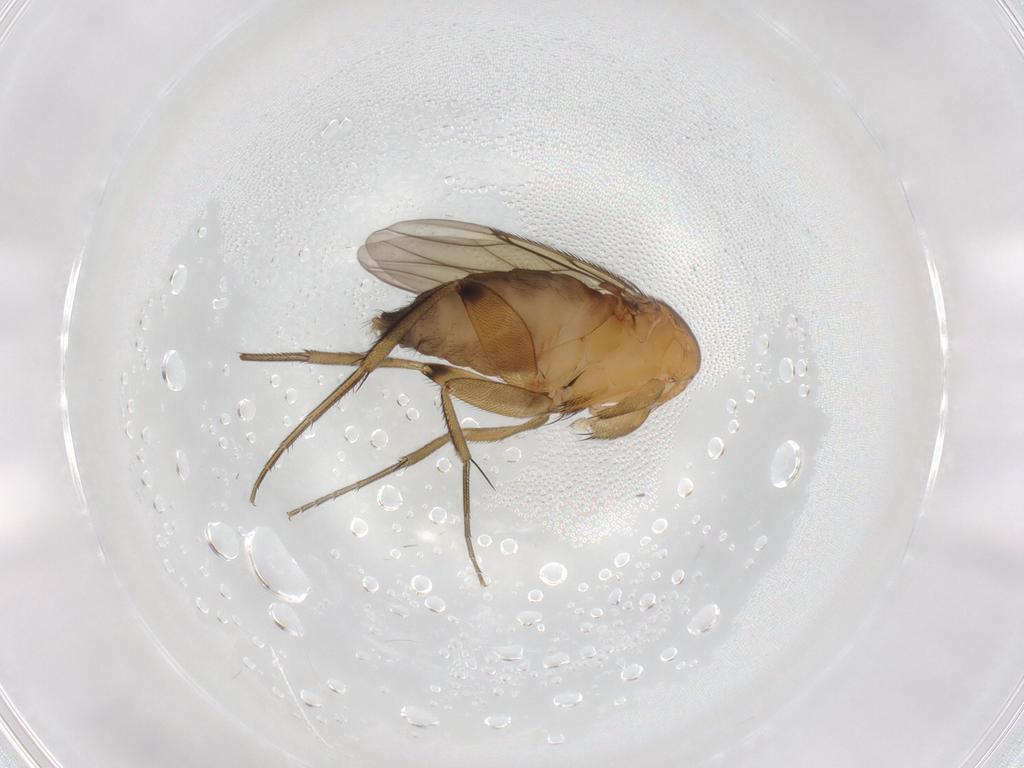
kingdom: Animalia
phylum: Arthropoda
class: Insecta
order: Diptera
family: Phoridae
